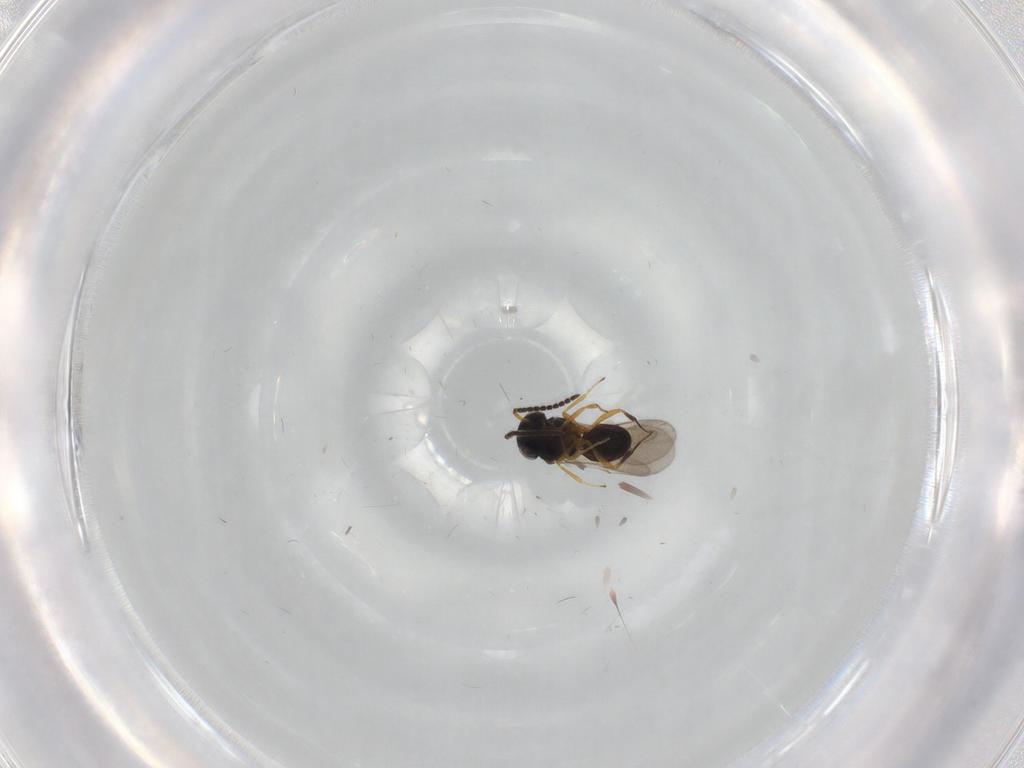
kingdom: Animalia
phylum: Arthropoda
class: Insecta
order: Hymenoptera
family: Scelionidae
